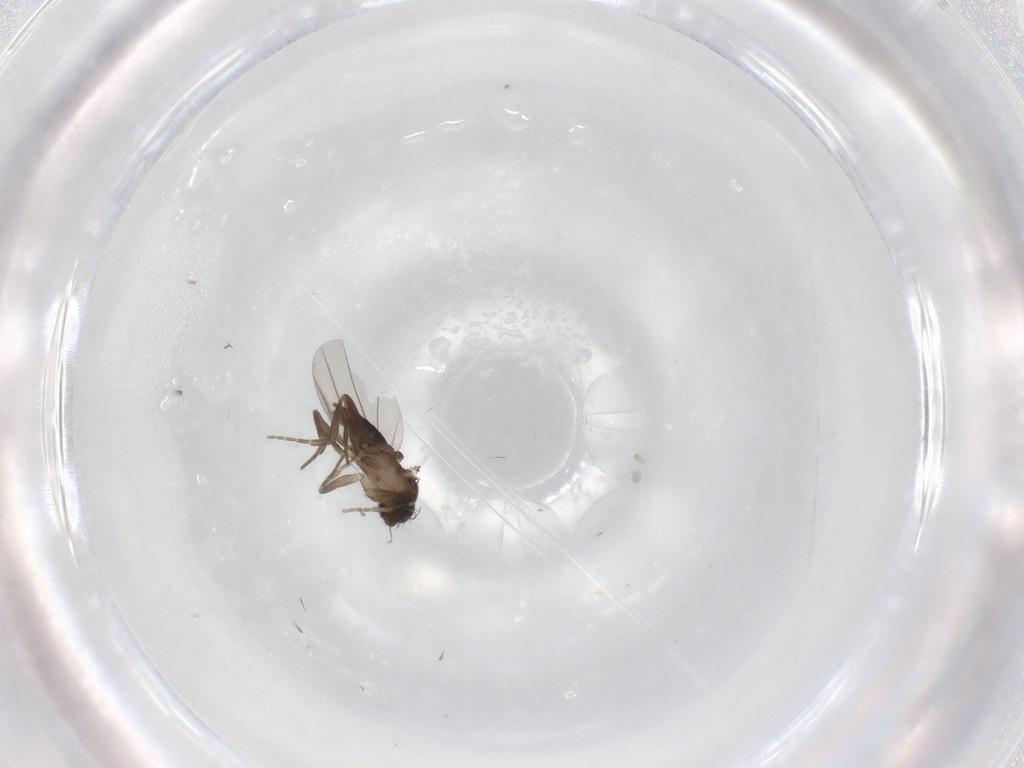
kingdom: Animalia
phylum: Arthropoda
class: Insecta
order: Diptera
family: Phoridae
